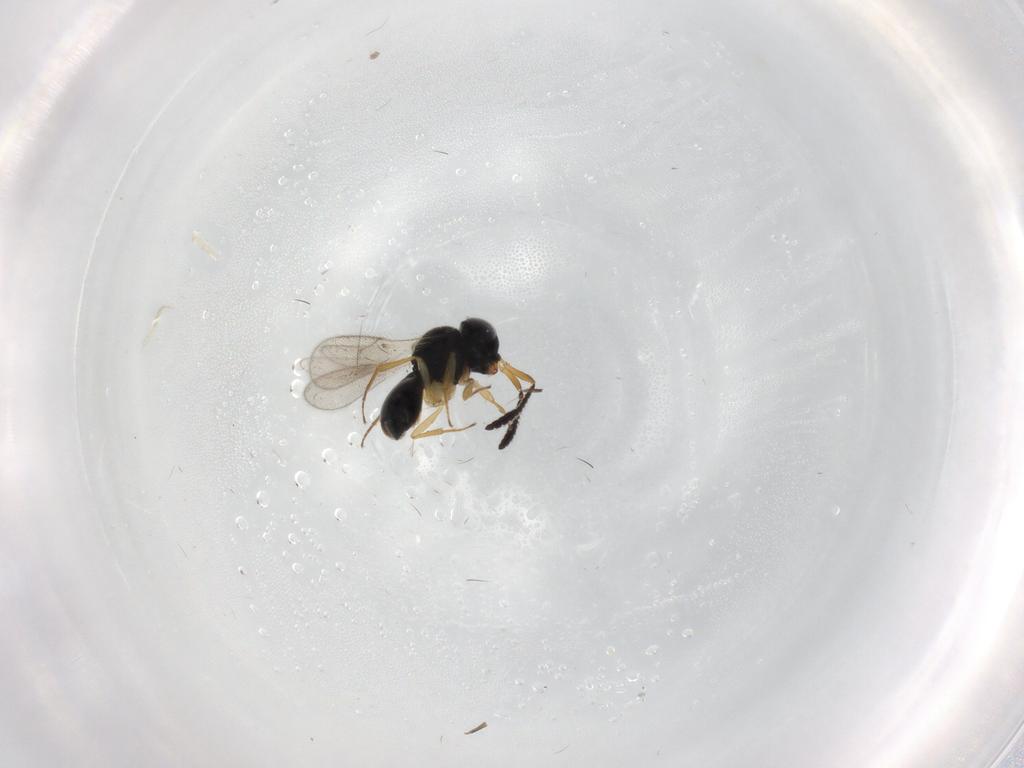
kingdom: Animalia
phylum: Arthropoda
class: Insecta
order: Hymenoptera
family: Scelionidae
